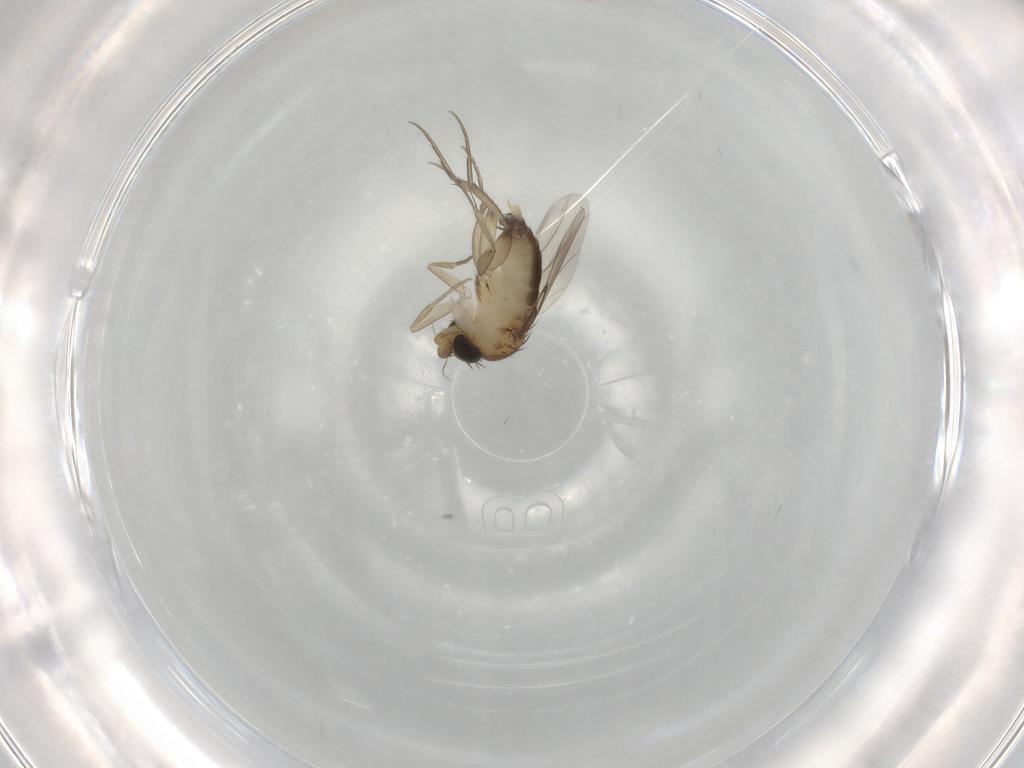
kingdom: Animalia
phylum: Arthropoda
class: Insecta
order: Diptera
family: Phoridae
